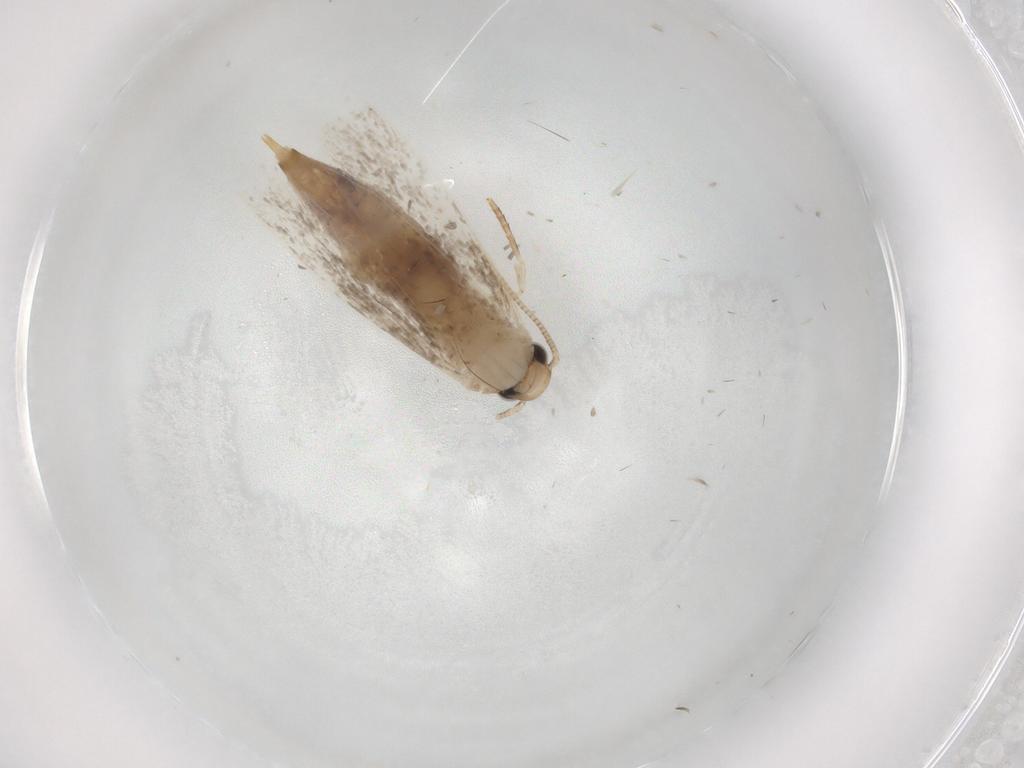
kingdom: Animalia
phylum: Arthropoda
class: Insecta
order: Lepidoptera
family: Tineidae
